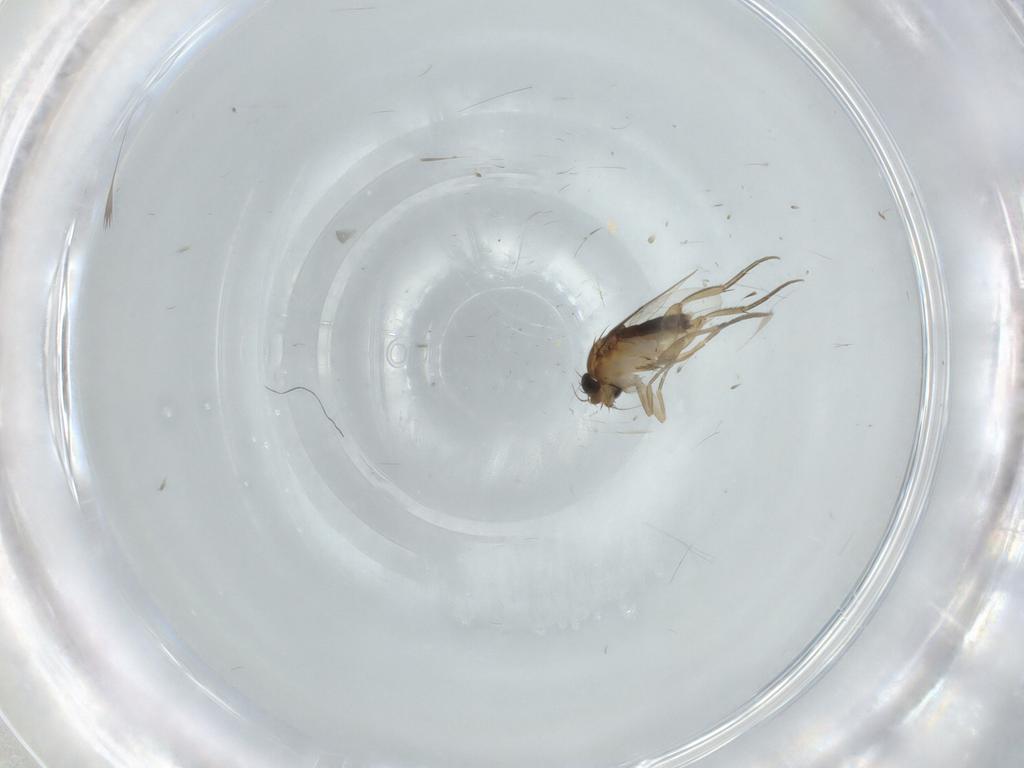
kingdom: Animalia
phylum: Arthropoda
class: Insecta
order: Diptera
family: Phoridae
